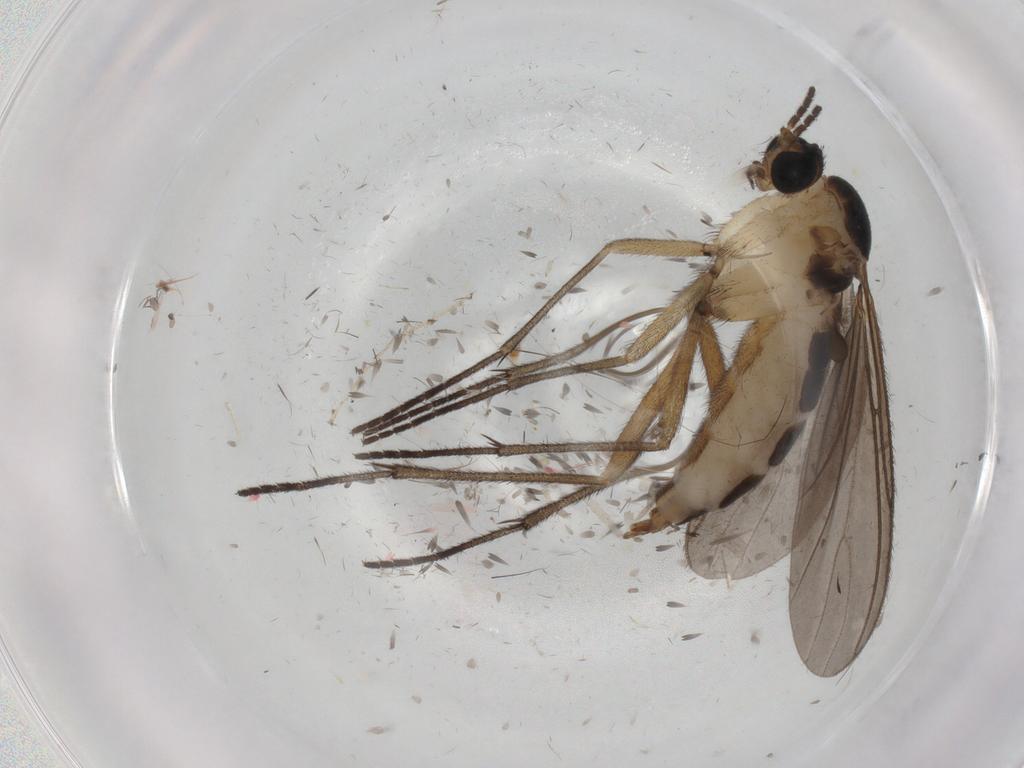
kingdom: Animalia
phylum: Arthropoda
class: Insecta
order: Diptera
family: Sciaridae
